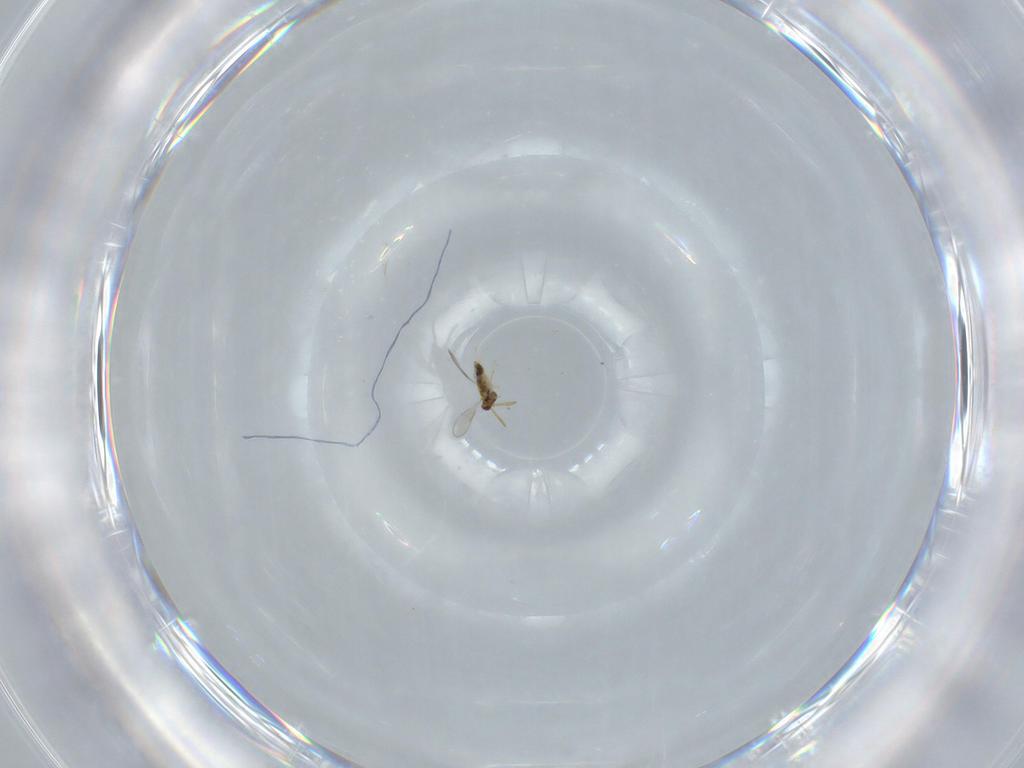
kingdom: Animalia
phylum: Arthropoda
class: Insecta
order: Hymenoptera
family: Aphelinidae
